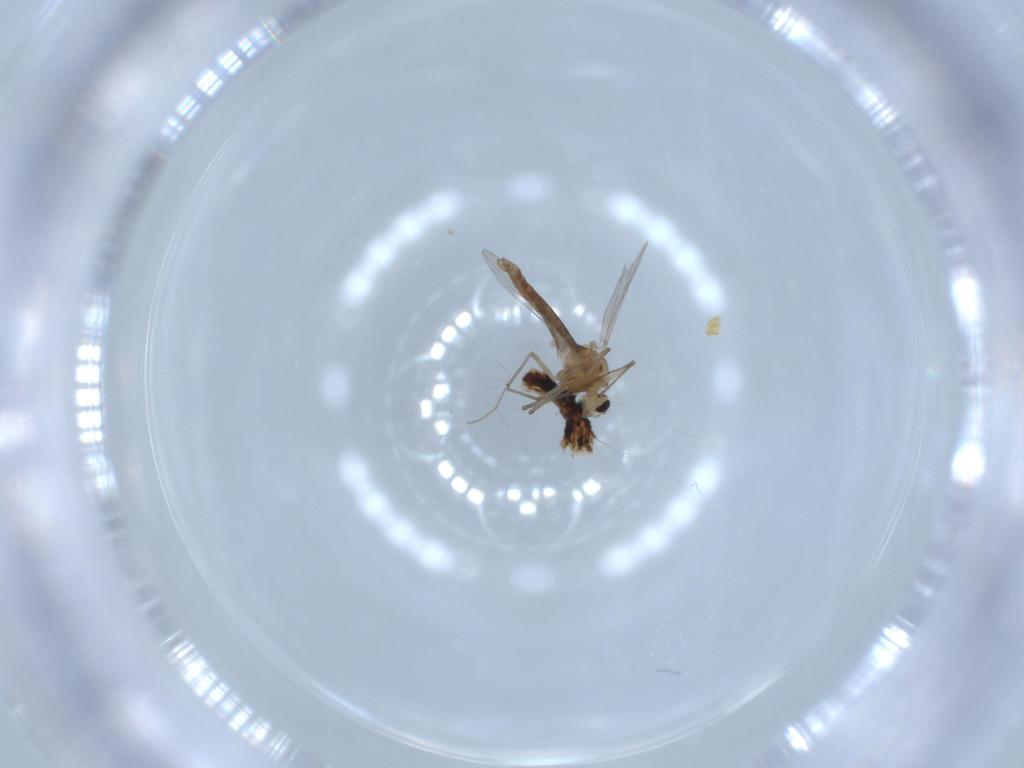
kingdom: Animalia
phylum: Arthropoda
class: Insecta
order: Diptera
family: Chironomidae
